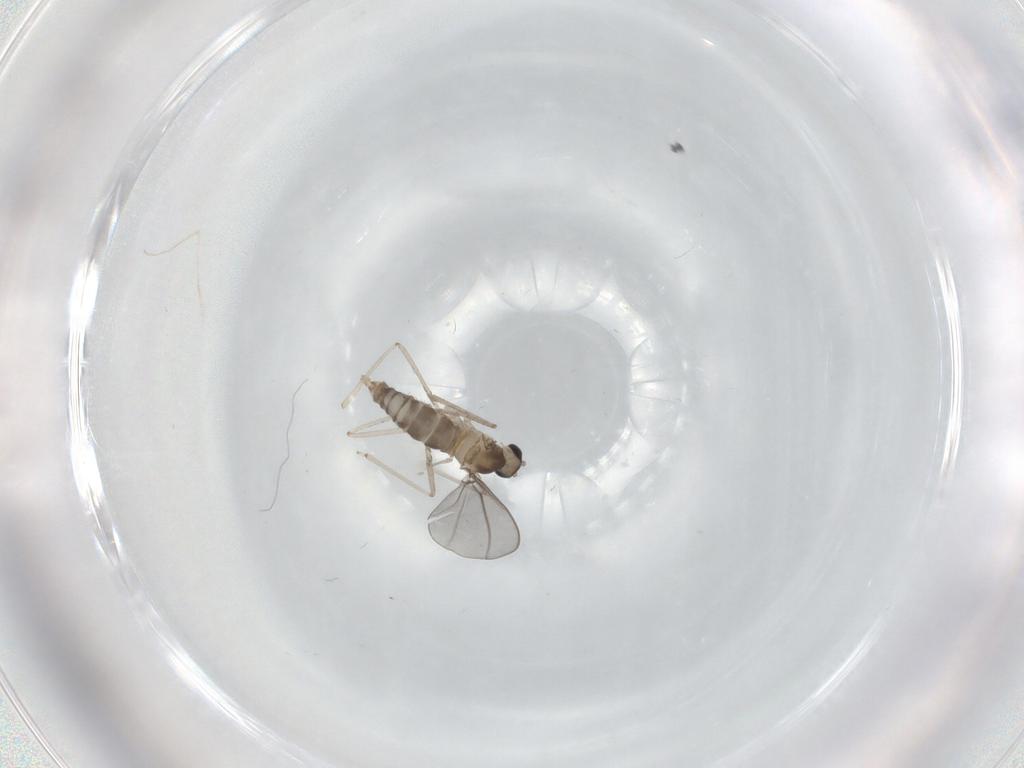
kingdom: Animalia
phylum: Arthropoda
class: Insecta
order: Diptera
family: Cecidomyiidae
